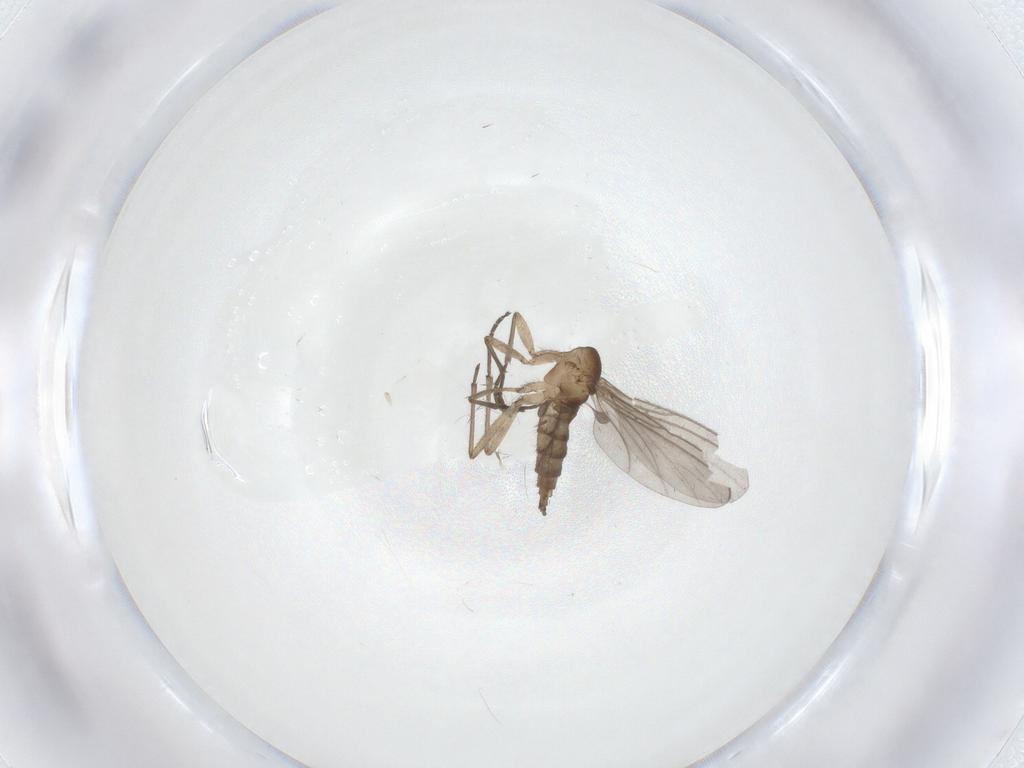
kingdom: Animalia
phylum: Arthropoda
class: Insecta
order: Diptera
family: Sciaridae
